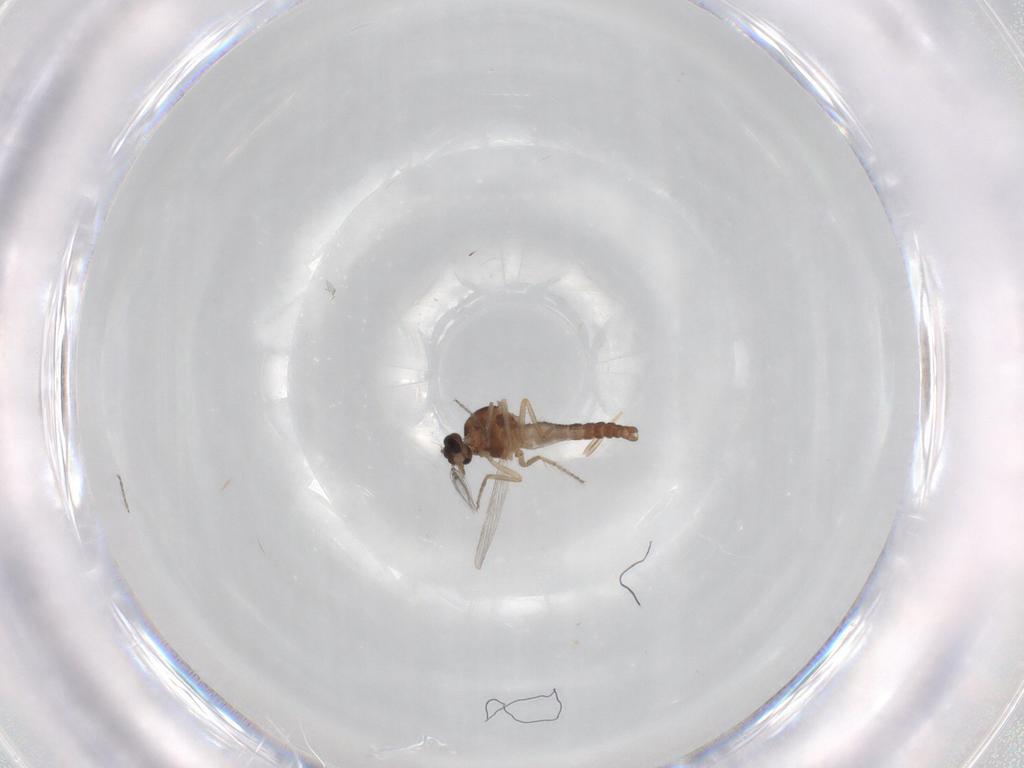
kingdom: Animalia
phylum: Arthropoda
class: Insecta
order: Diptera
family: Ceratopogonidae
